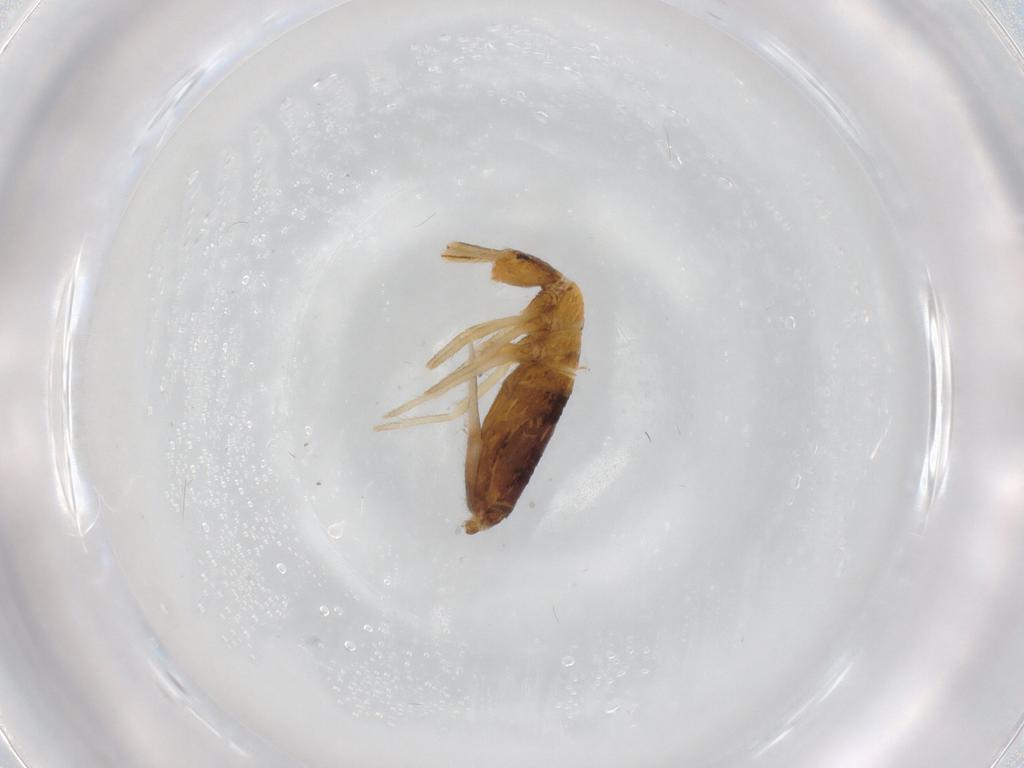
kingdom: Animalia
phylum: Arthropoda
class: Collembola
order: Entomobryomorpha
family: Entomobryidae
